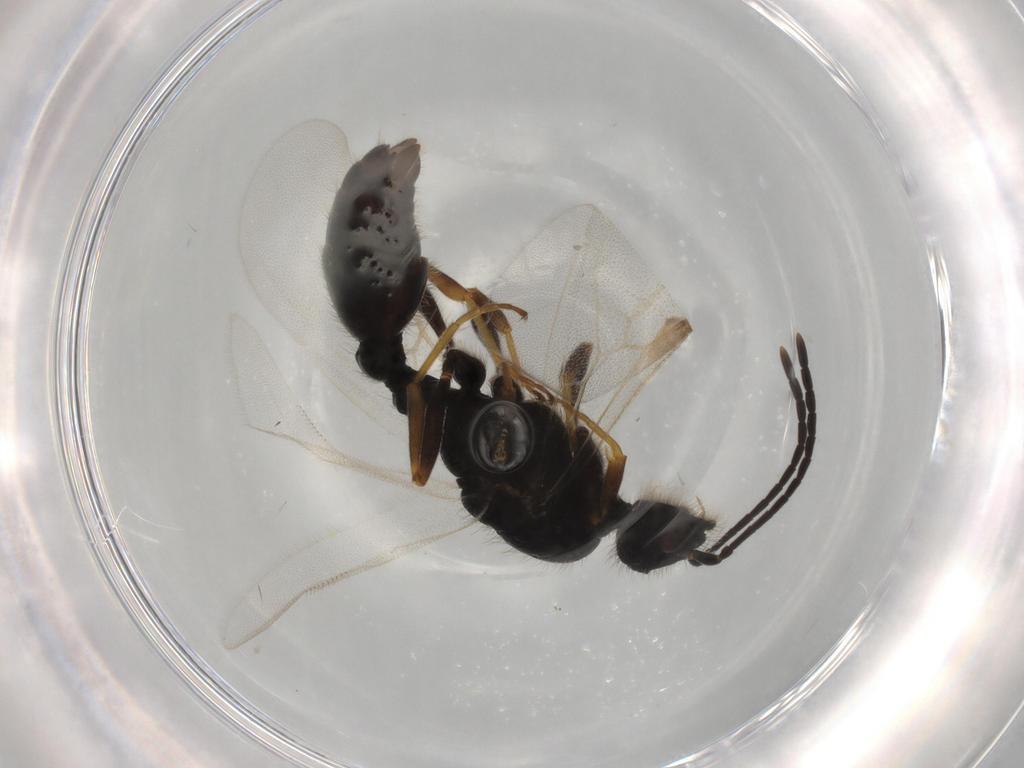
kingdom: Animalia
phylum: Arthropoda
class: Insecta
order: Hymenoptera
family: Formicidae
